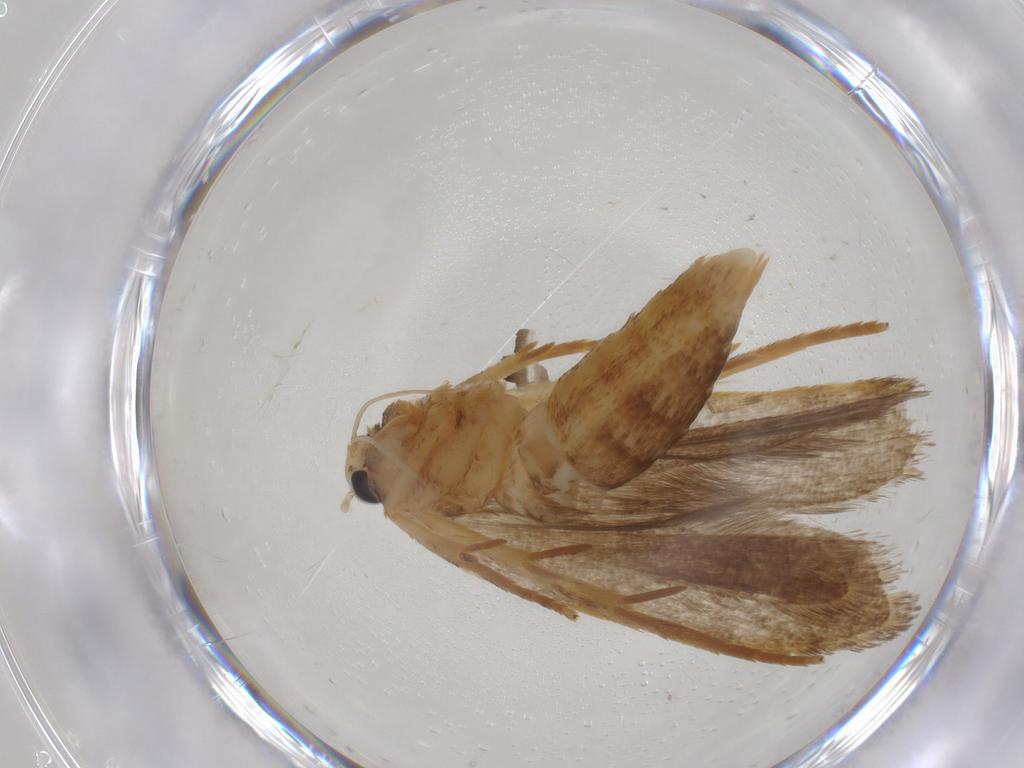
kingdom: Animalia
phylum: Arthropoda
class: Insecta
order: Lepidoptera
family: Gelechiidae
